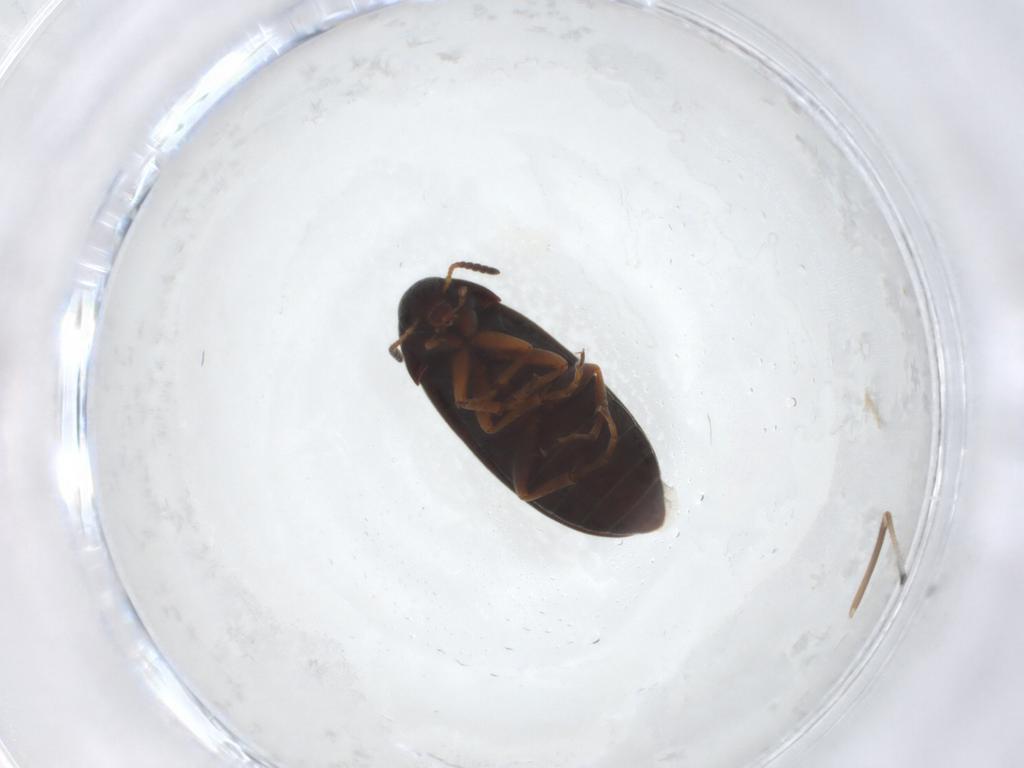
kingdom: Animalia
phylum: Arthropoda
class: Insecta
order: Coleoptera
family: Scraptiidae
